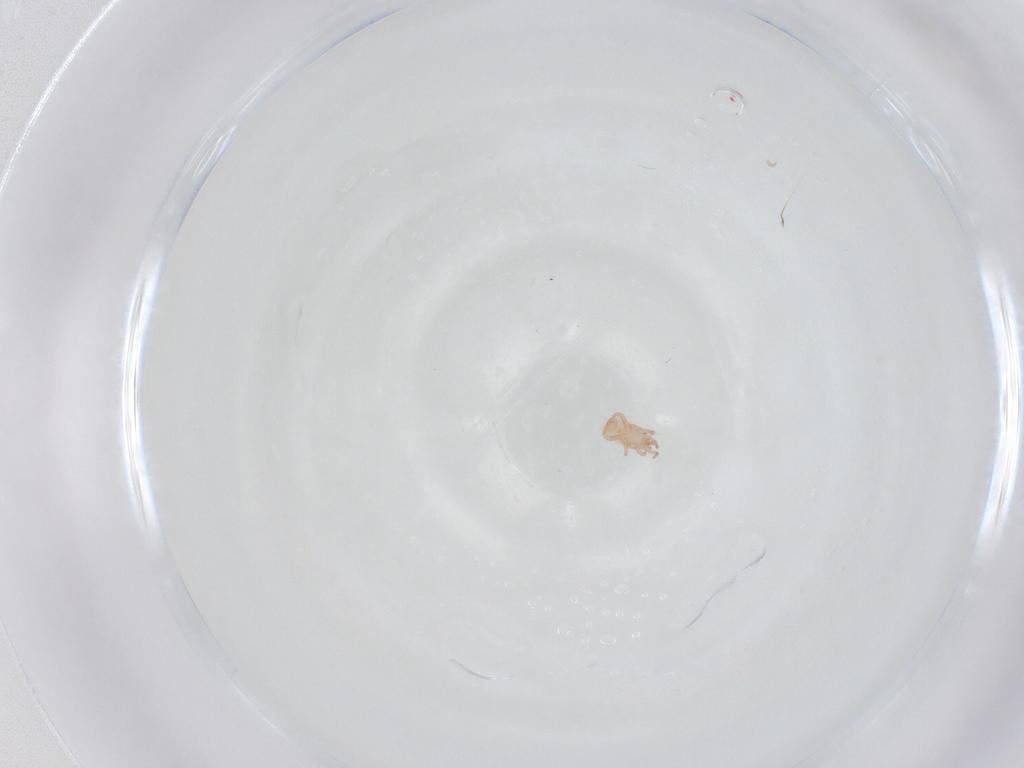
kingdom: Animalia
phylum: Arthropoda
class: Arachnida
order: Mesostigmata
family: Digamasellidae
